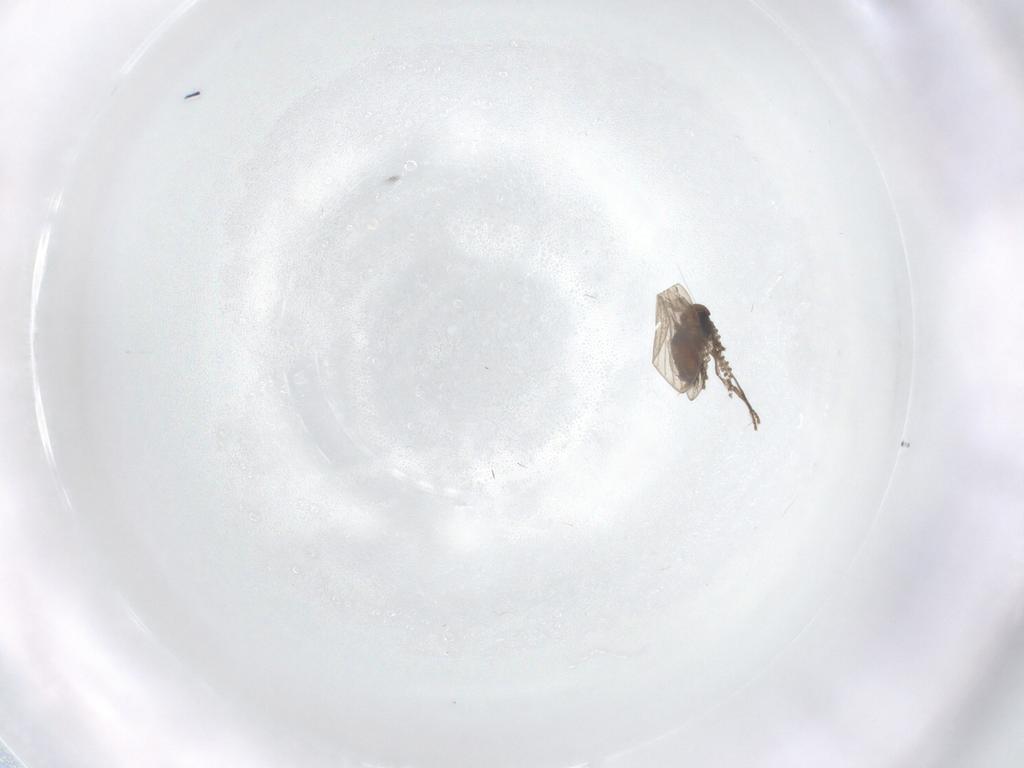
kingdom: Animalia
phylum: Arthropoda
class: Insecta
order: Diptera
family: Psychodidae
